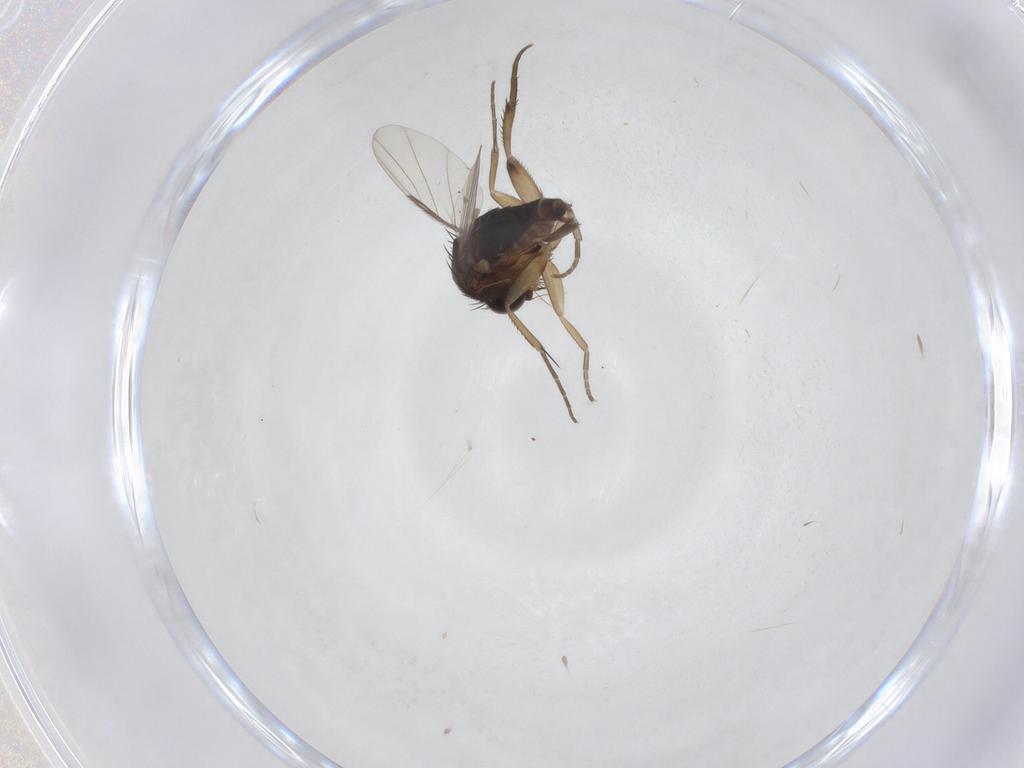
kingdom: Animalia
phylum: Arthropoda
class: Insecta
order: Diptera
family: Phoridae
